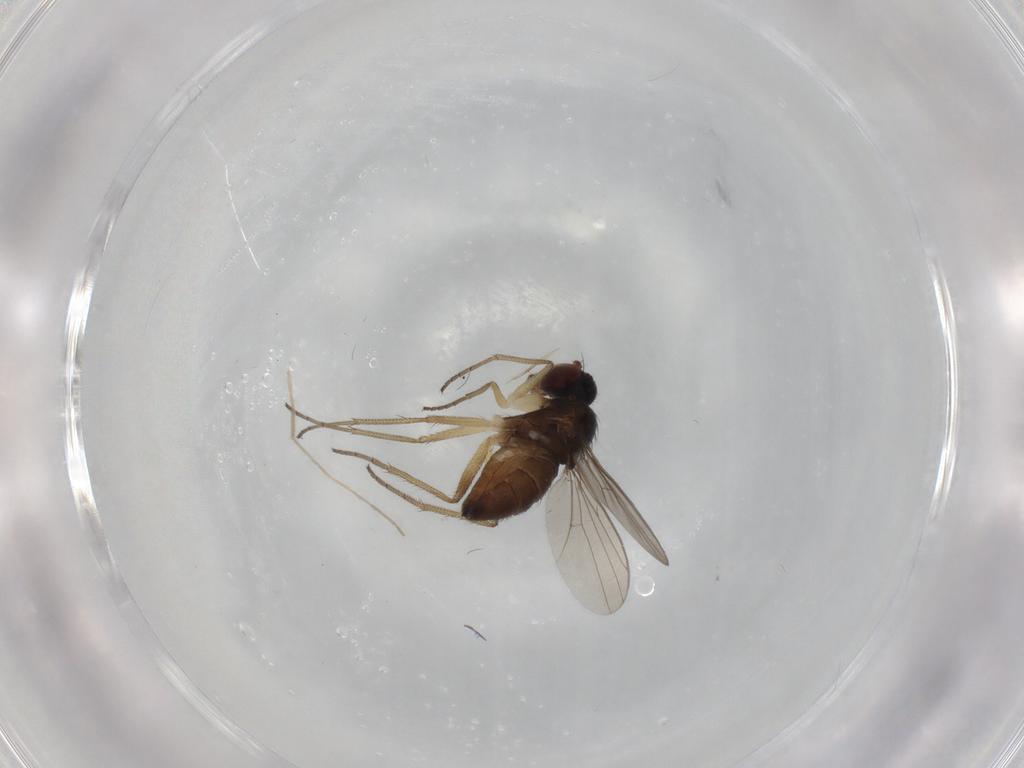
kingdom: Animalia
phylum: Arthropoda
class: Insecta
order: Diptera
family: Dolichopodidae
